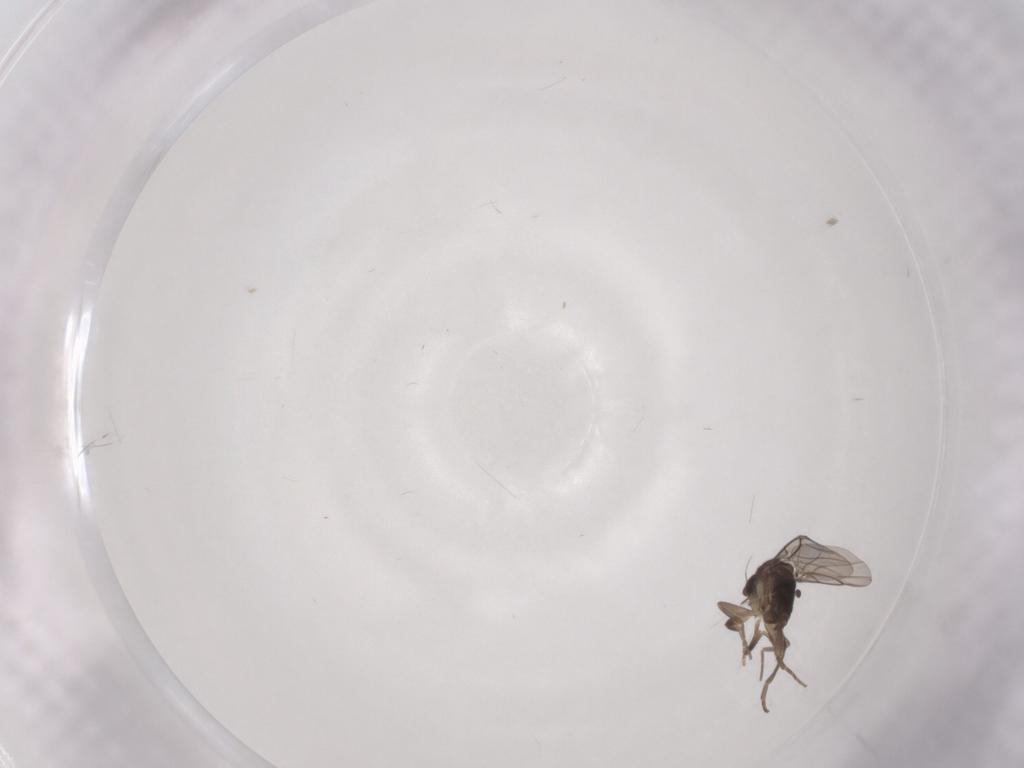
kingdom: Animalia
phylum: Arthropoda
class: Insecta
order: Diptera
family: Phoridae
